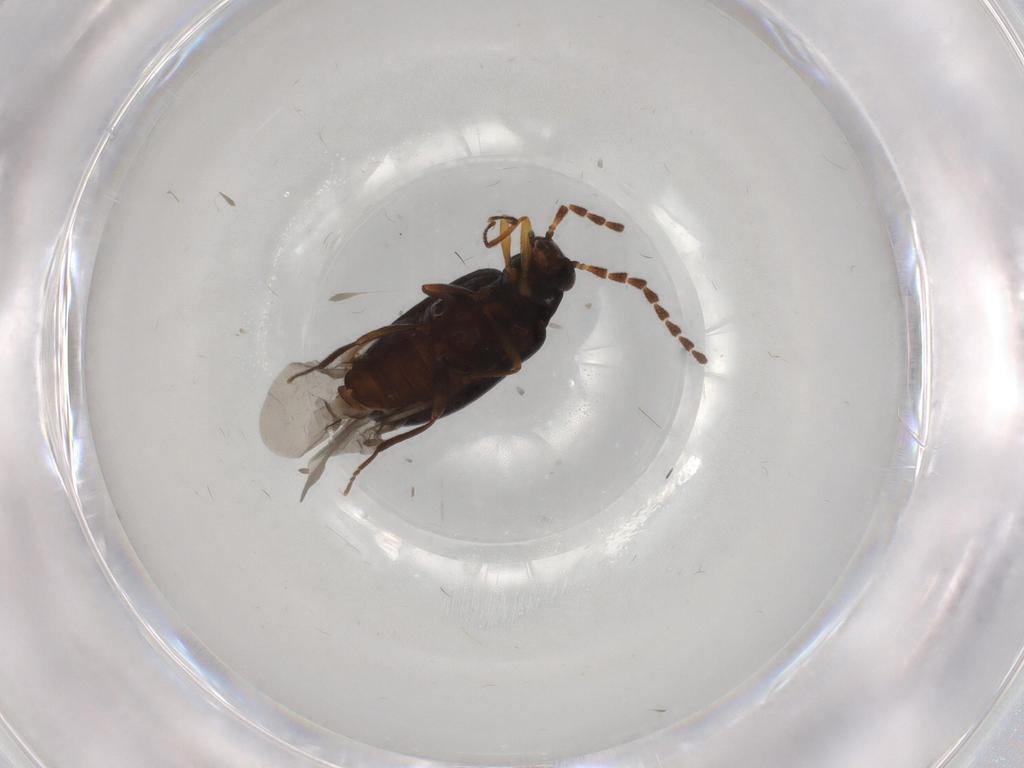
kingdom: Animalia
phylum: Arthropoda
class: Insecta
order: Coleoptera
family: Tenebrionidae
